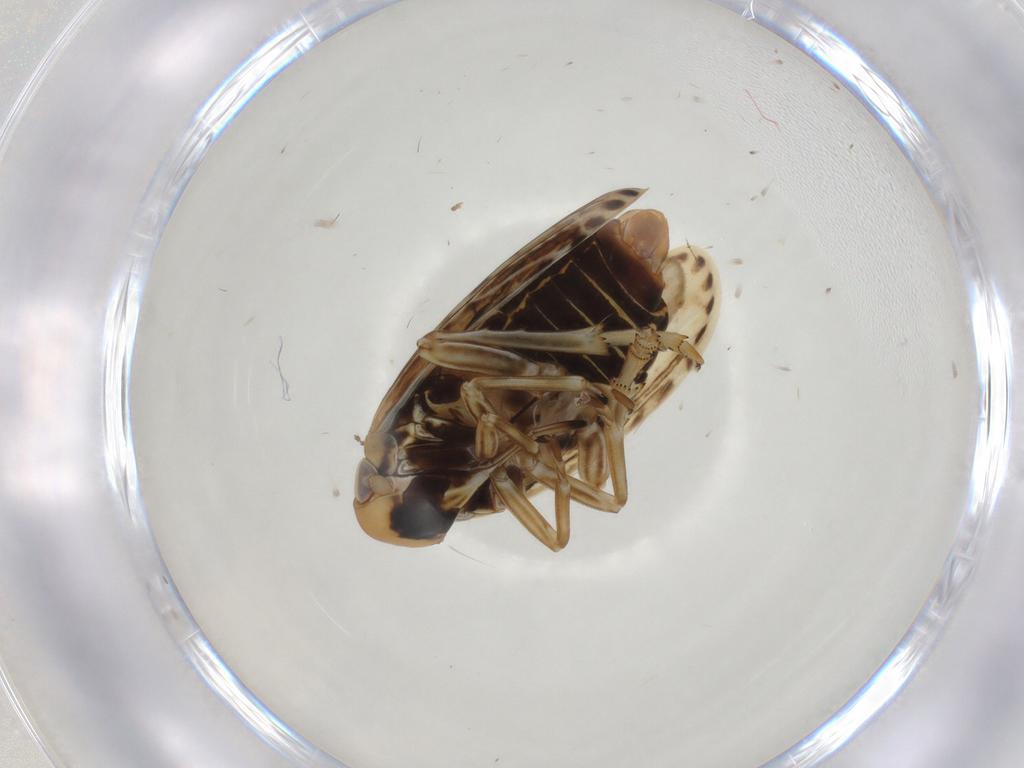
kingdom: Animalia
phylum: Arthropoda
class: Insecta
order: Hemiptera
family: Achilidae
